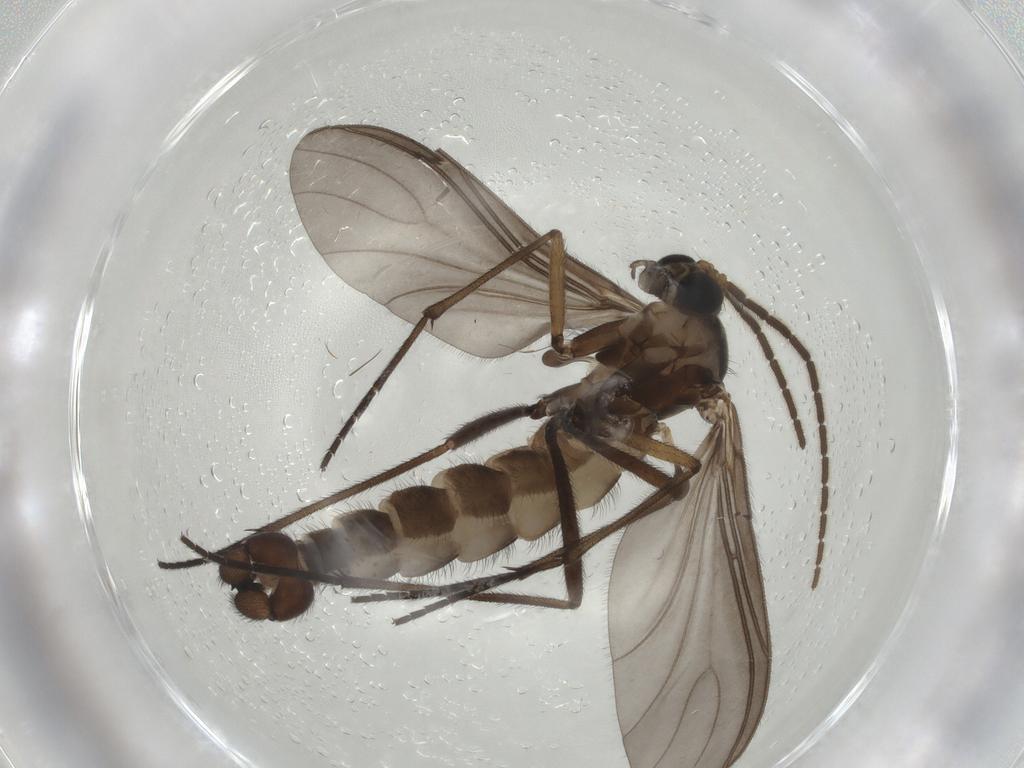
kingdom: Animalia
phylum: Arthropoda
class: Insecta
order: Diptera
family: Sciaridae
